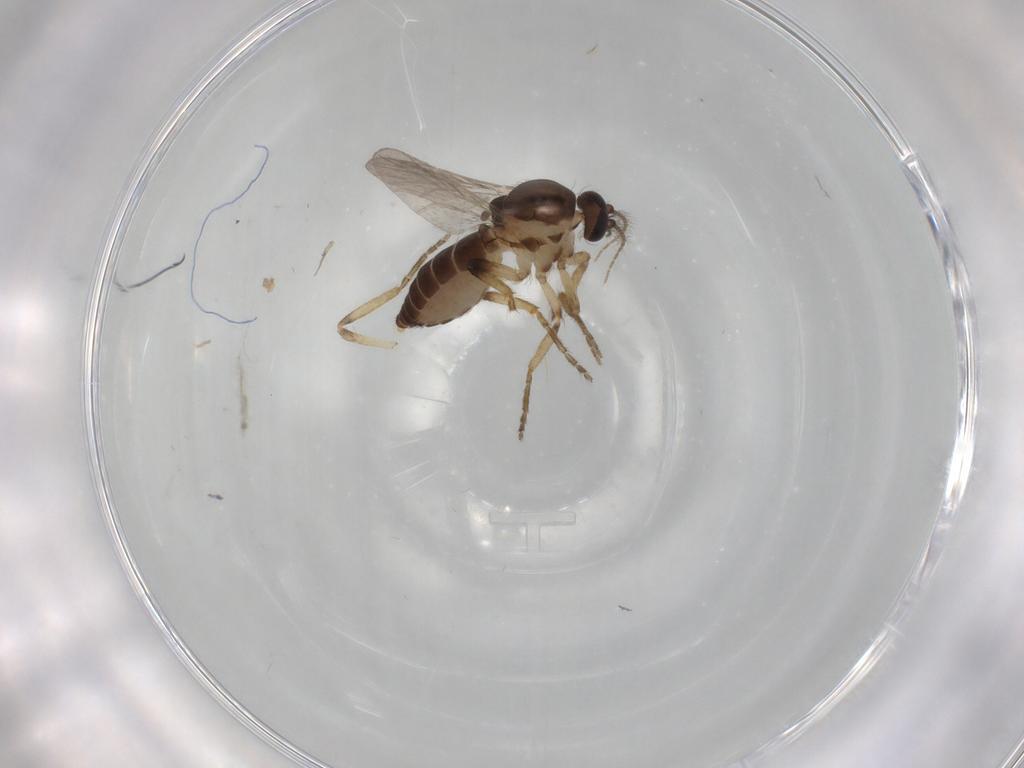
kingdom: Animalia
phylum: Arthropoda
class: Insecta
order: Diptera
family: Ceratopogonidae
